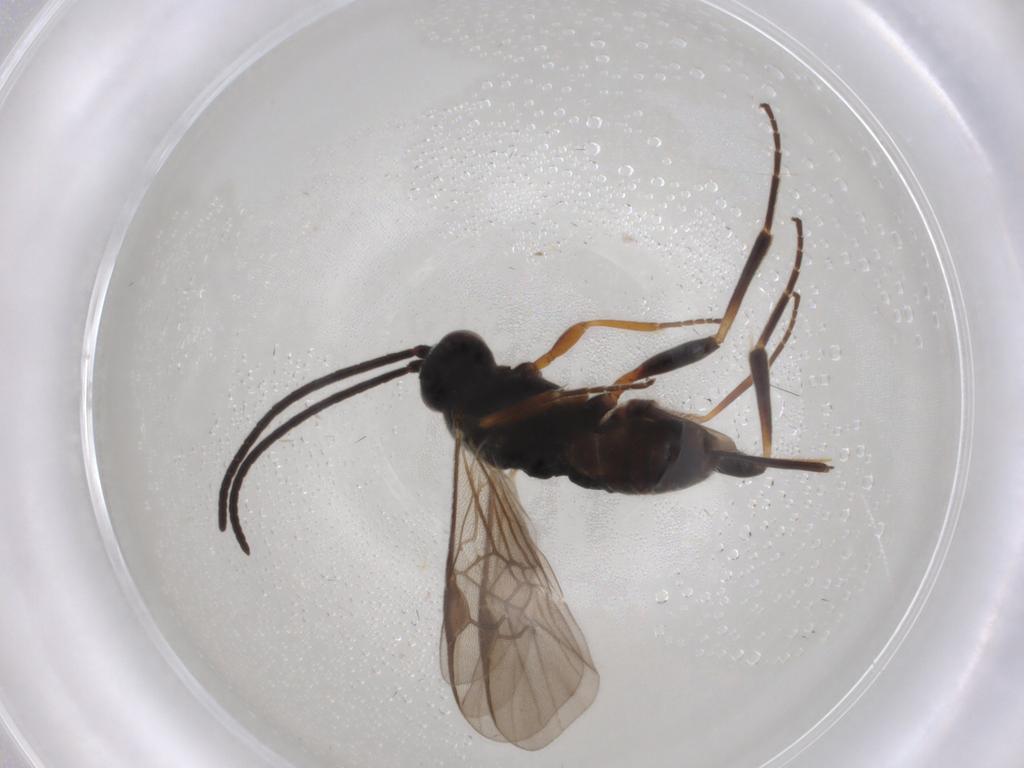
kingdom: Animalia
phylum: Arthropoda
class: Insecta
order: Hymenoptera
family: Braconidae
